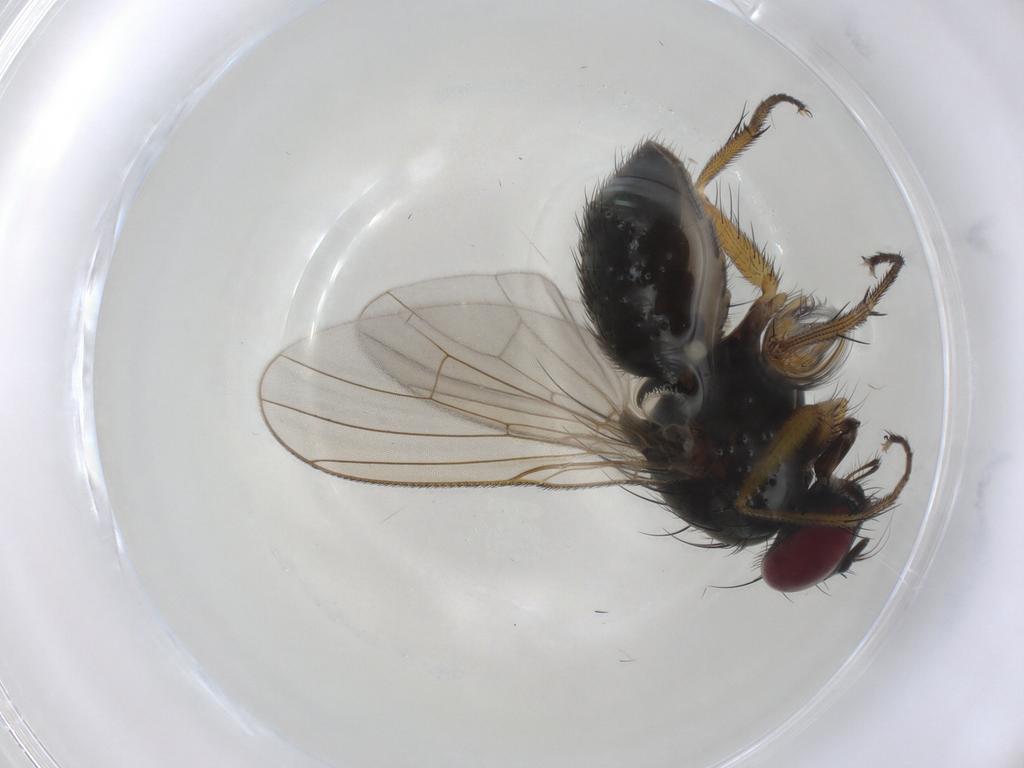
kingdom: Animalia
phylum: Arthropoda
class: Insecta
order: Diptera
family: Muscidae
